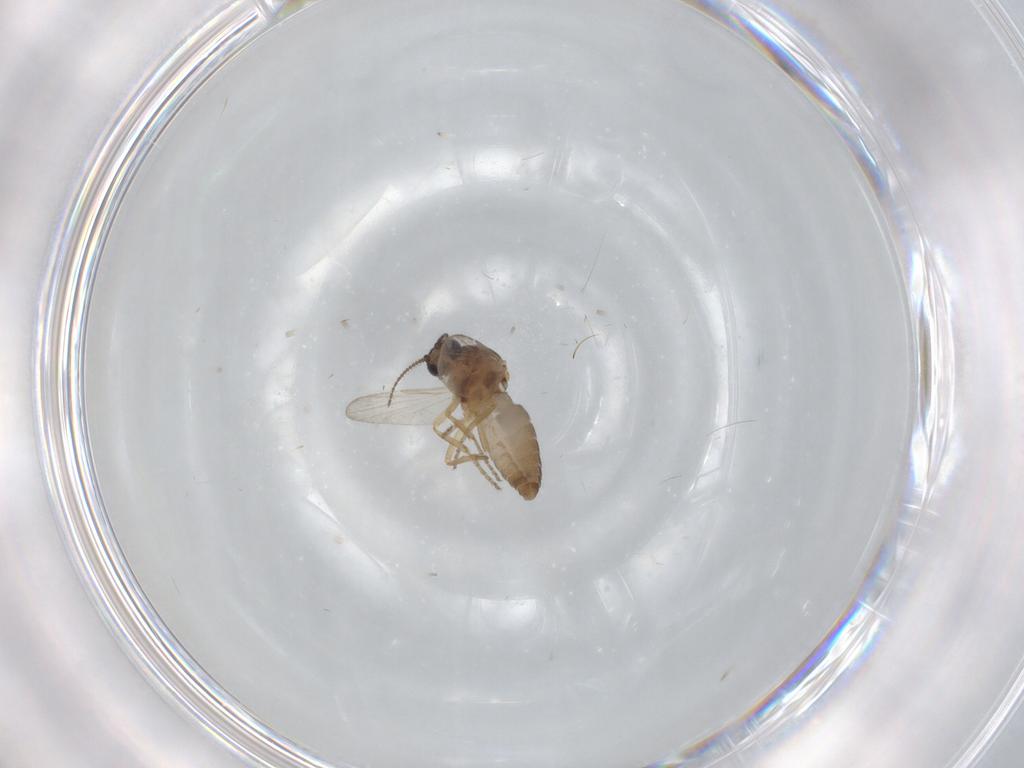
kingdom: Animalia
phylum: Arthropoda
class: Insecta
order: Diptera
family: Ceratopogonidae
